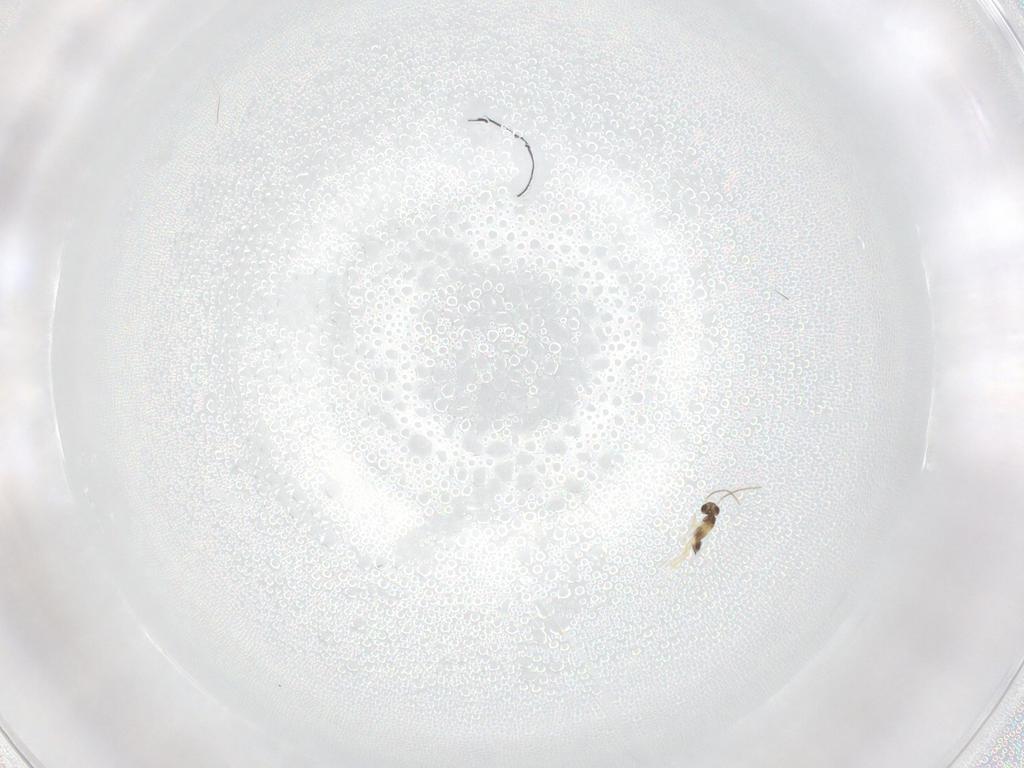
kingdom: Animalia
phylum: Arthropoda
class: Insecta
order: Hymenoptera
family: Mymaridae
